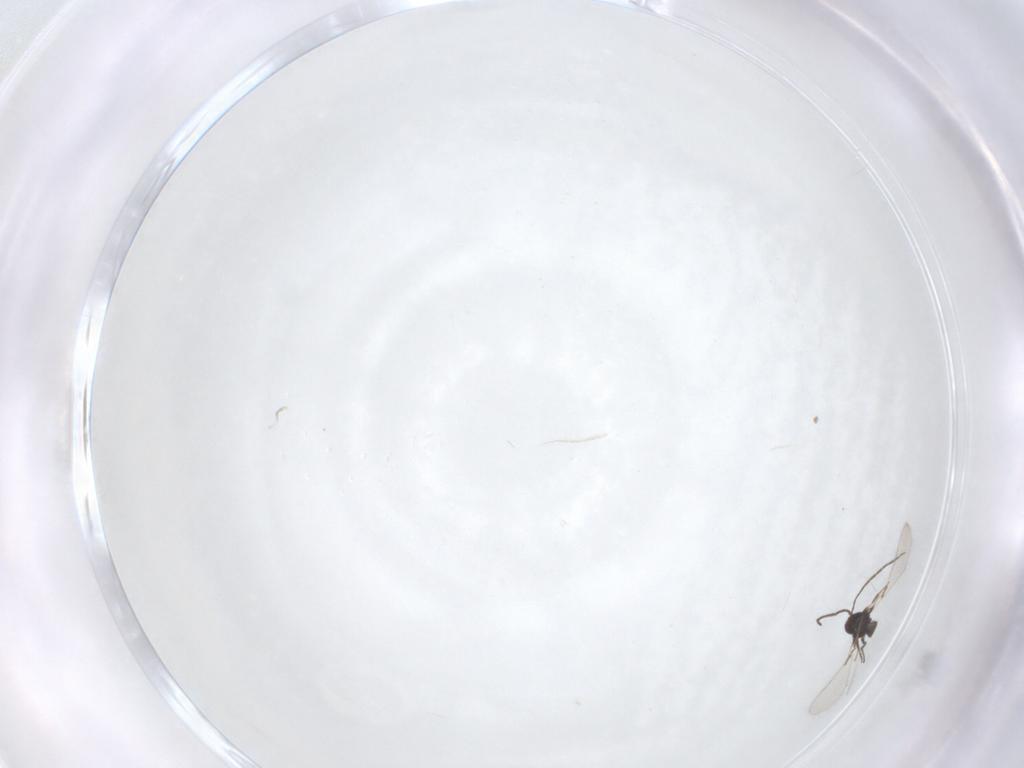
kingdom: Animalia
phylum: Arthropoda
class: Insecta
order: Hymenoptera
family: Mymaridae
